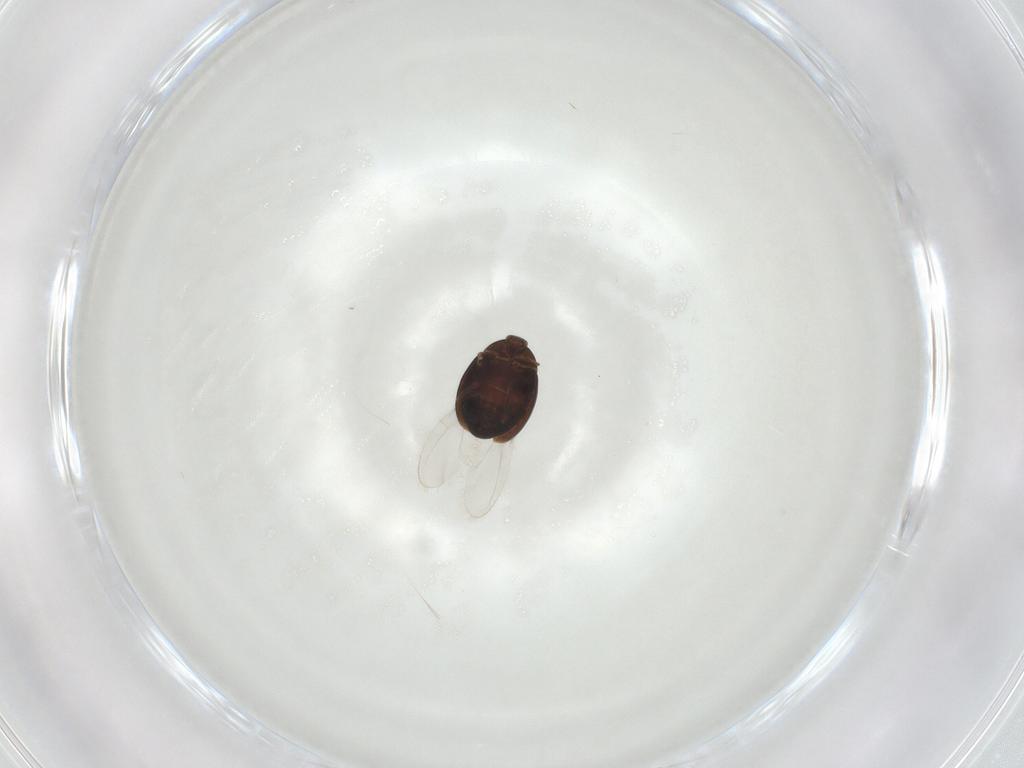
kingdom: Animalia
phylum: Arthropoda
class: Insecta
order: Coleoptera
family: Corylophidae
